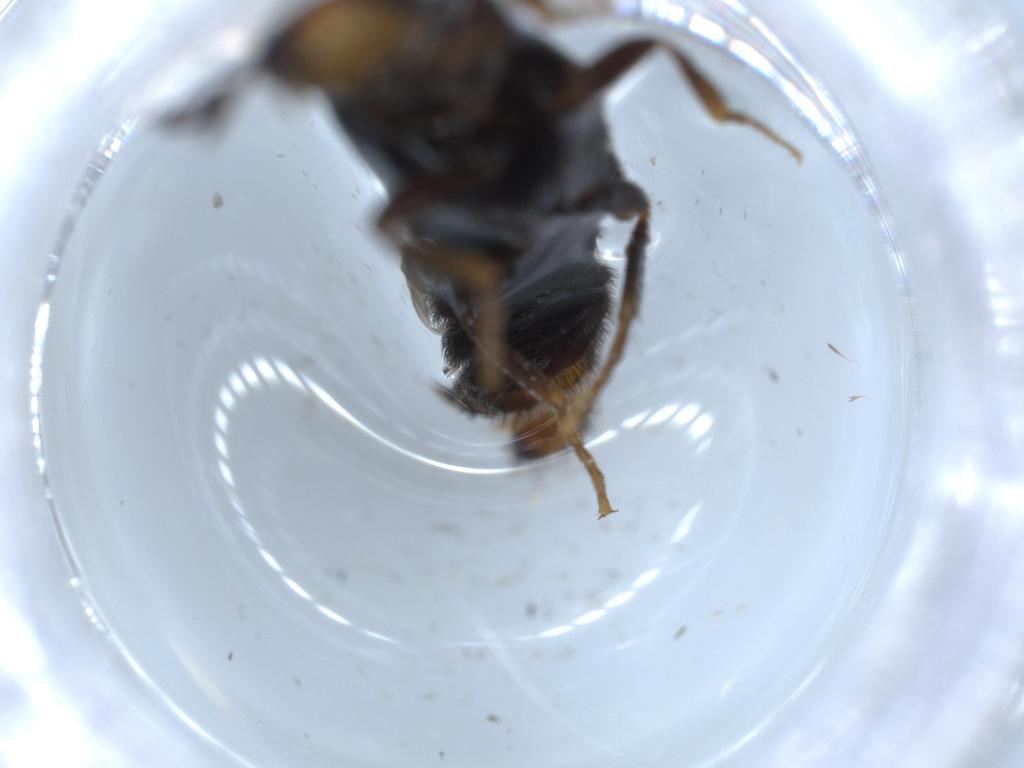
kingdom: Animalia
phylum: Arthropoda
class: Insecta
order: Coleoptera
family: Phengodidae
